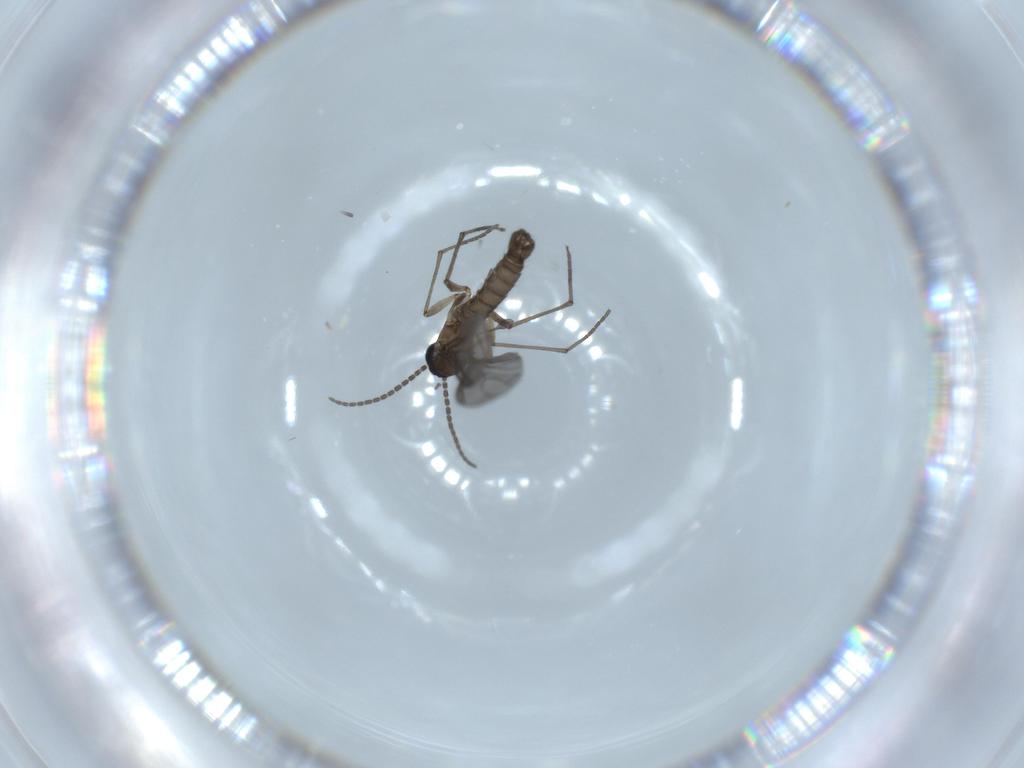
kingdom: Animalia
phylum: Arthropoda
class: Insecta
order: Diptera
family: Sciaridae
